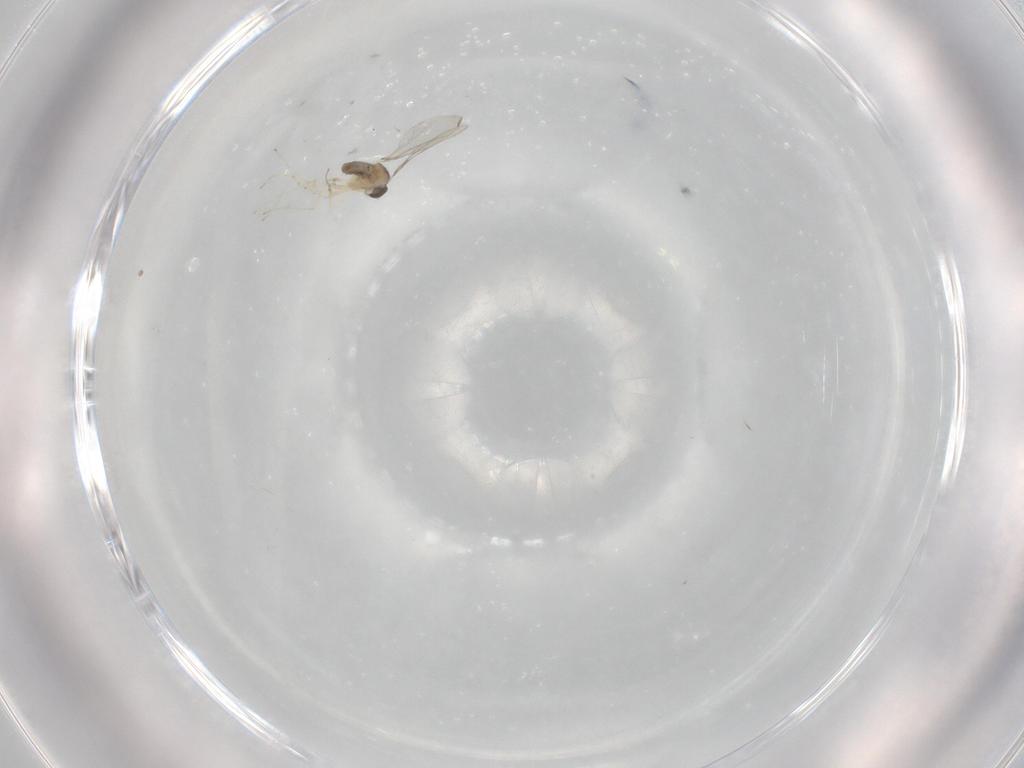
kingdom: Animalia
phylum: Arthropoda
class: Insecta
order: Diptera
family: Cecidomyiidae
